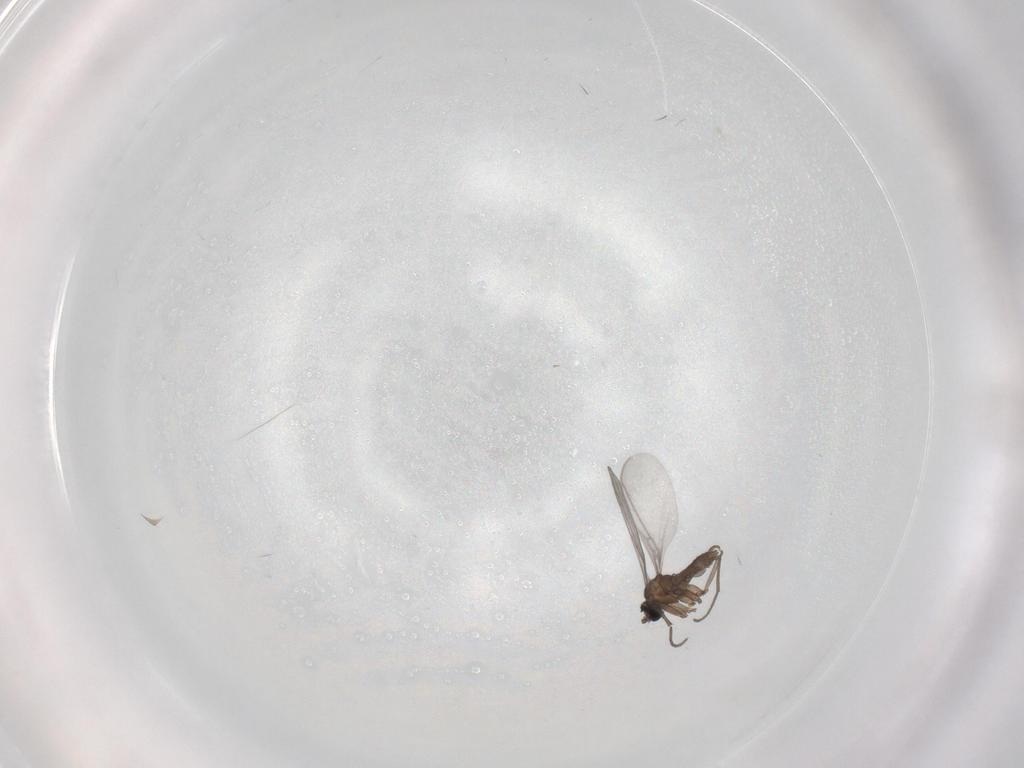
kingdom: Animalia
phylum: Arthropoda
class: Insecta
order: Diptera
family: Sciaridae
